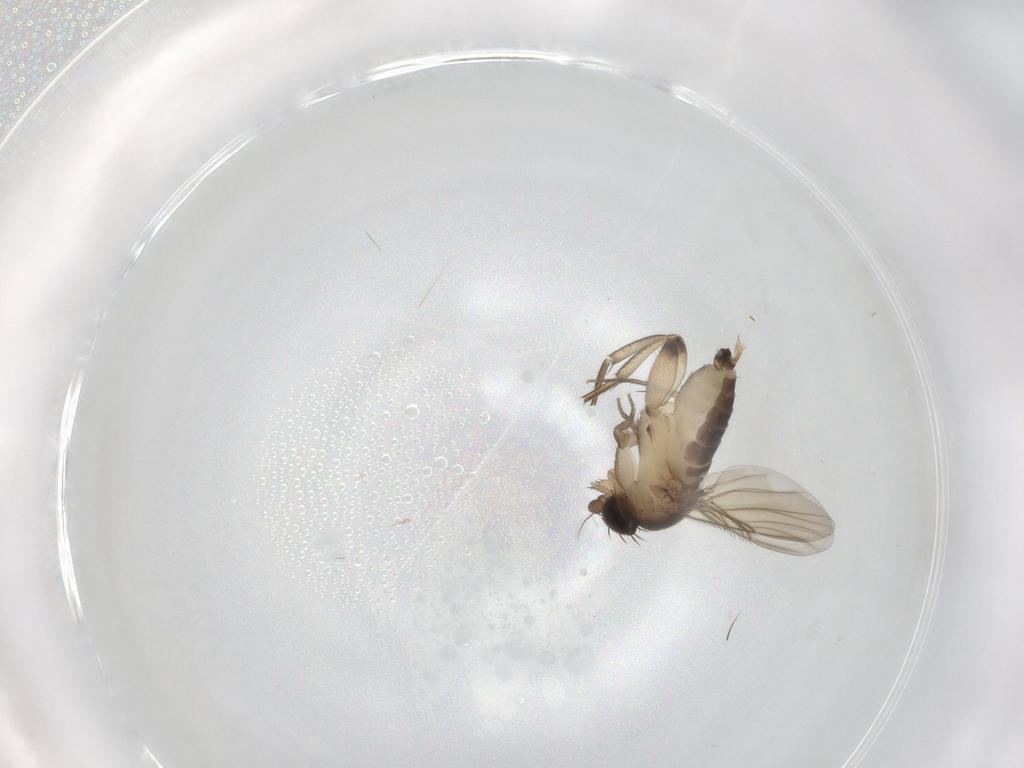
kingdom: Animalia
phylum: Arthropoda
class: Insecta
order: Diptera
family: Phoridae
